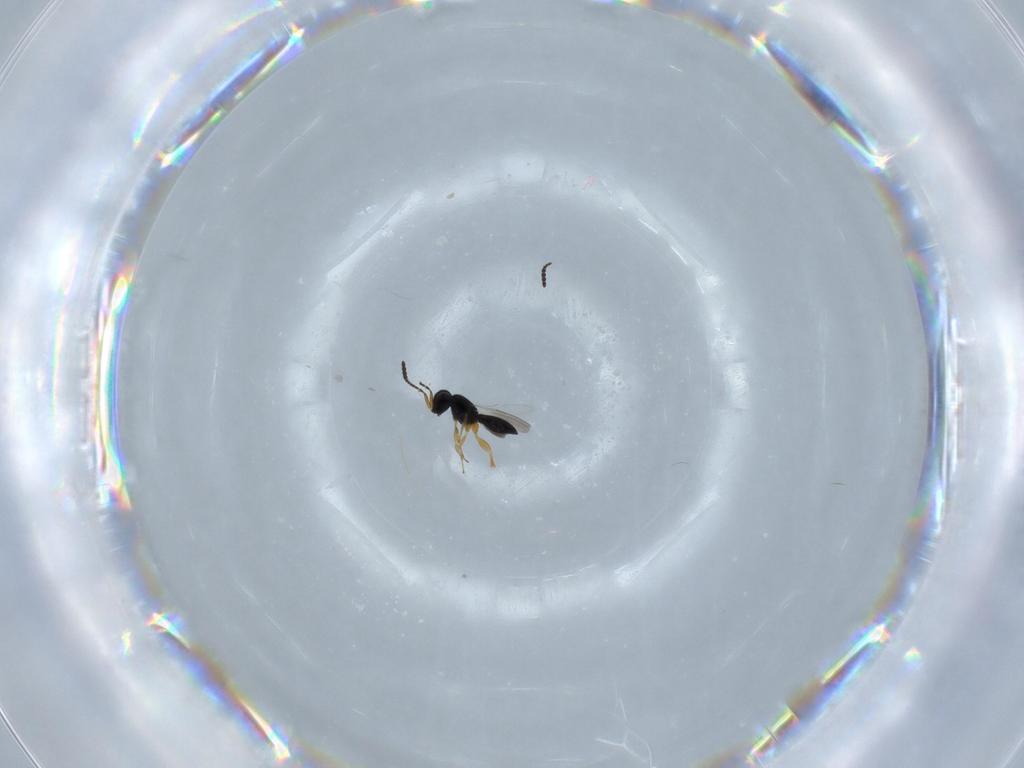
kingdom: Animalia
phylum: Arthropoda
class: Insecta
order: Hymenoptera
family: Scelionidae
